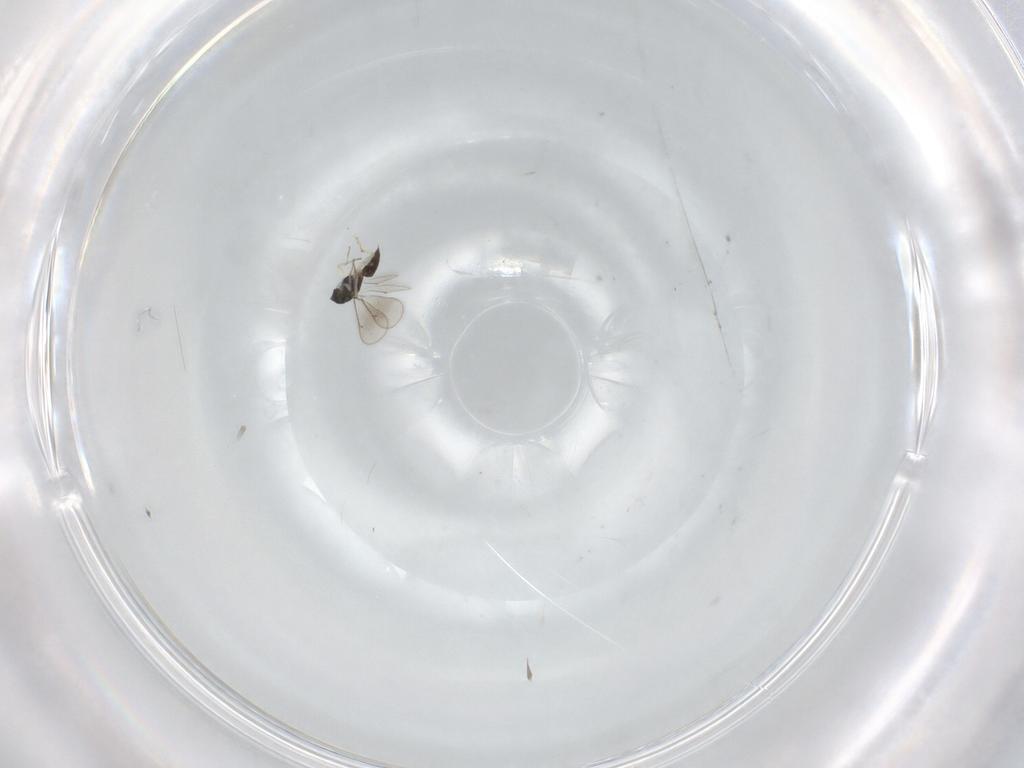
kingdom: Animalia
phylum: Arthropoda
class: Insecta
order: Hymenoptera
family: Eulophidae
